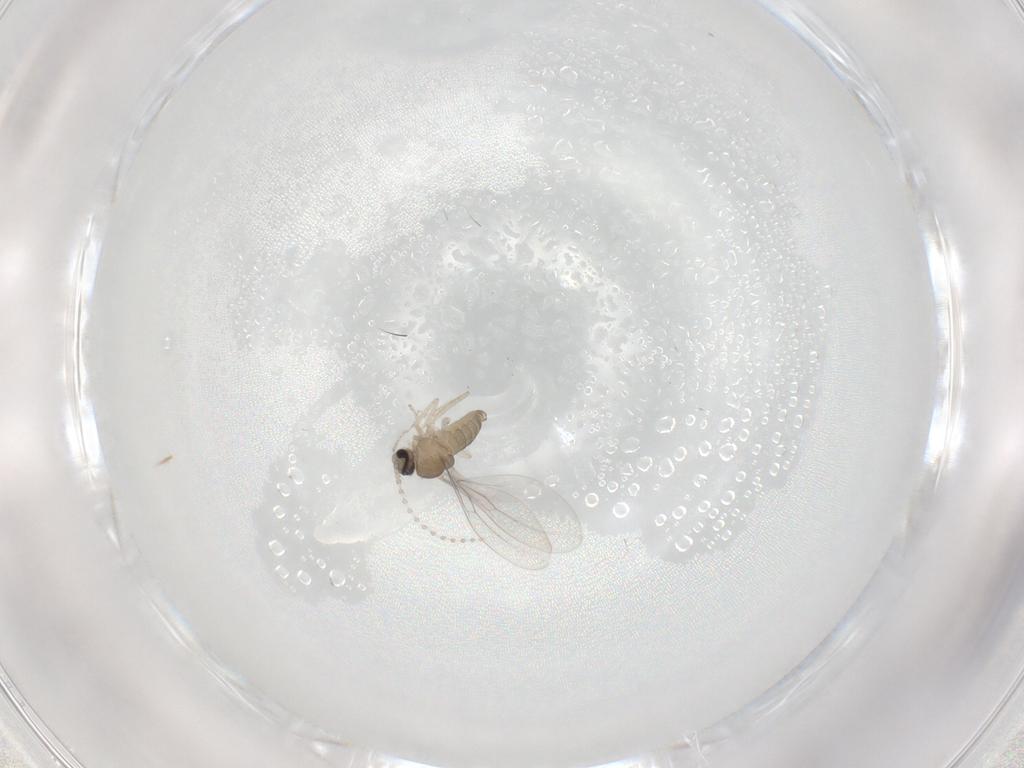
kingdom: Animalia
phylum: Arthropoda
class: Insecta
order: Diptera
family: Cecidomyiidae
